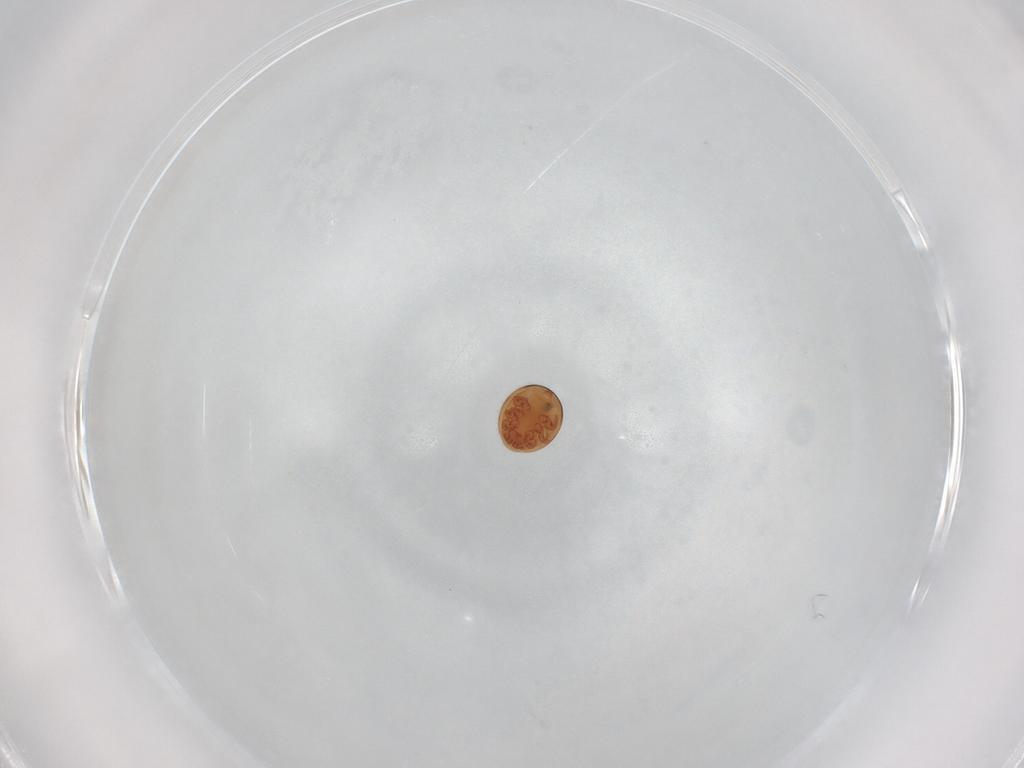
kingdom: Animalia
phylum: Arthropoda
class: Arachnida
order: Mesostigmata
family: Uropodidae
